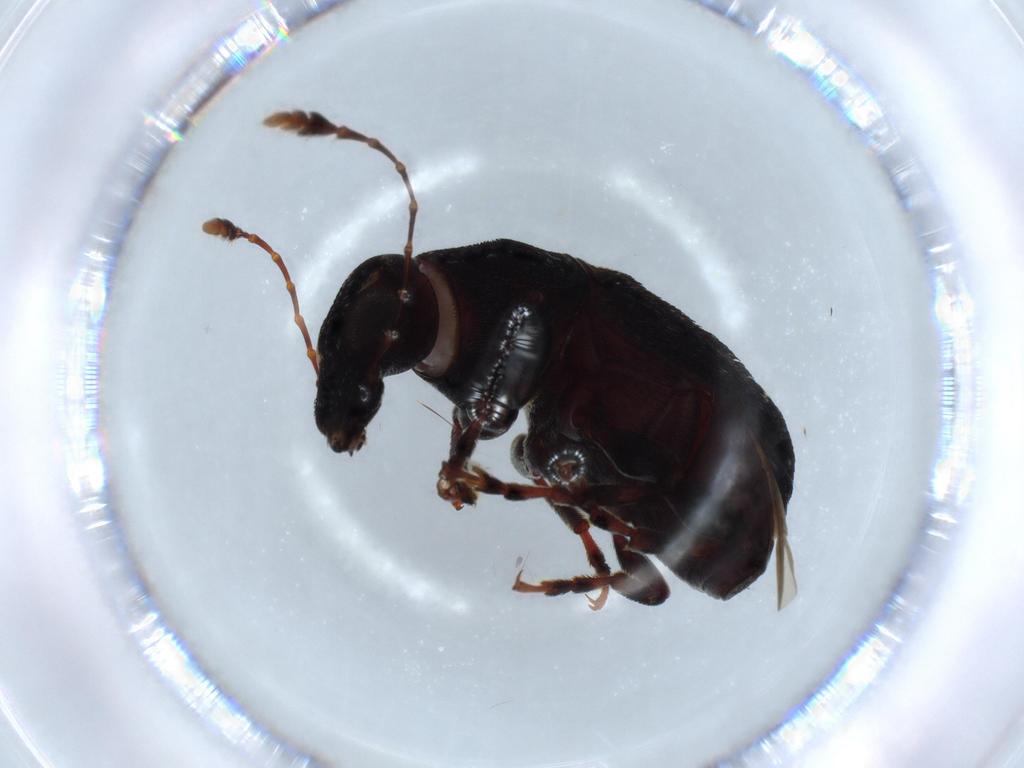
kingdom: Animalia
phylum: Arthropoda
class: Insecta
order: Coleoptera
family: Anthribidae
